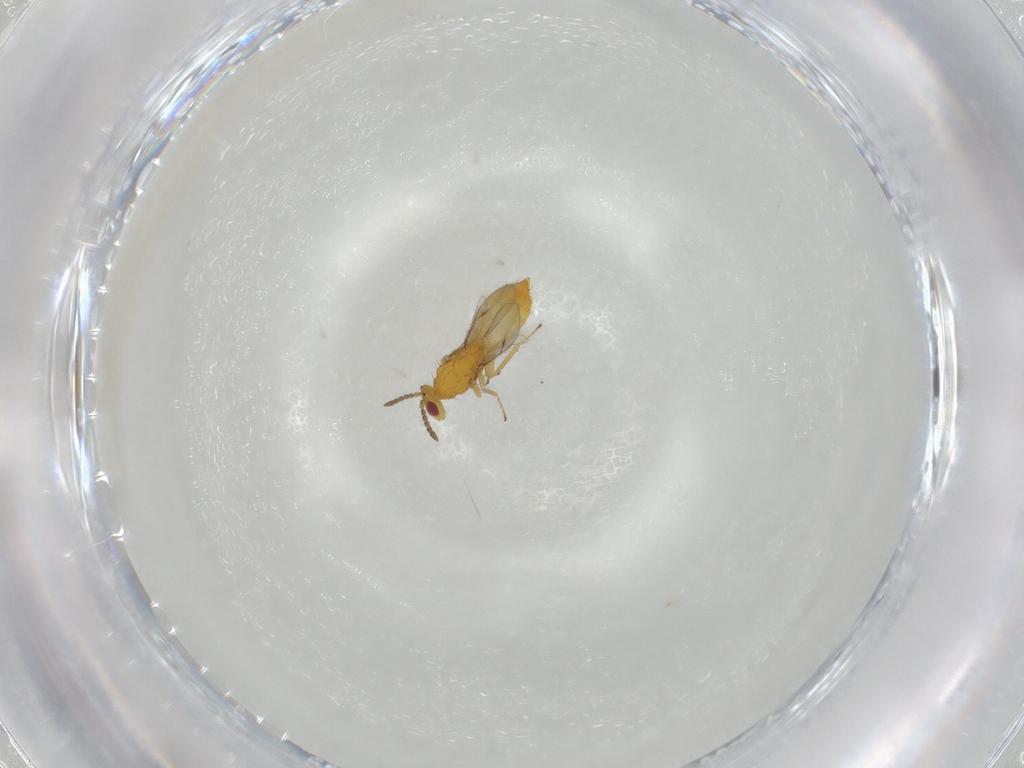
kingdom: Animalia
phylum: Arthropoda
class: Insecta
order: Hymenoptera
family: Eulophidae
